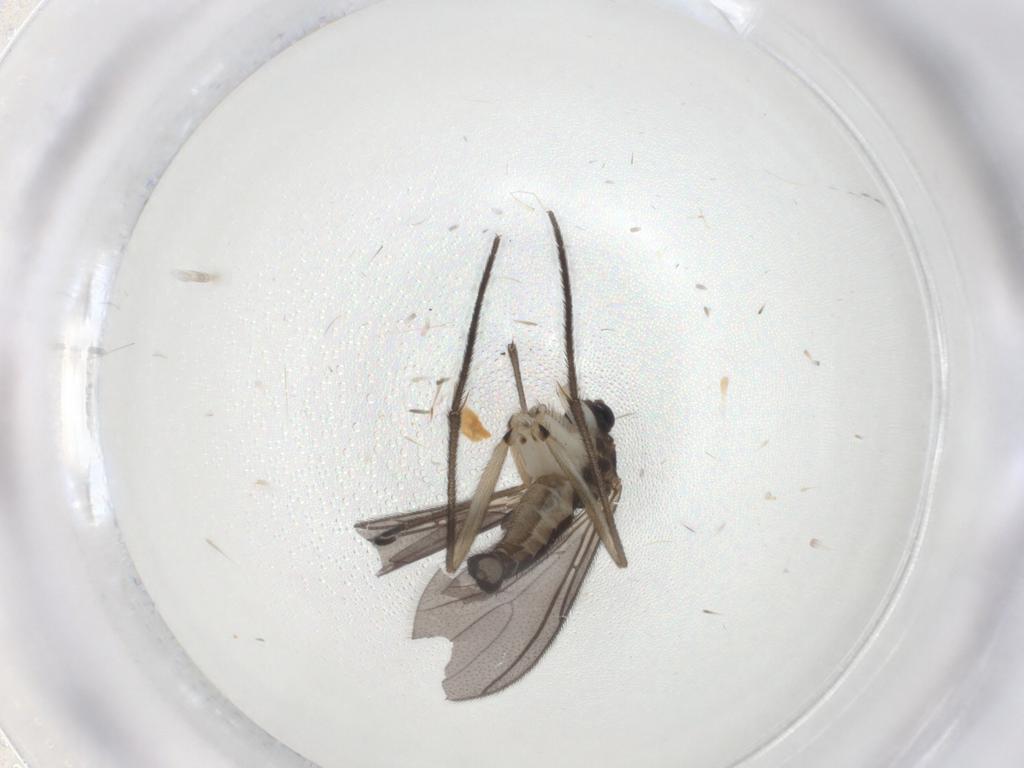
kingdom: Animalia
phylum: Arthropoda
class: Insecta
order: Diptera
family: Sciaridae
